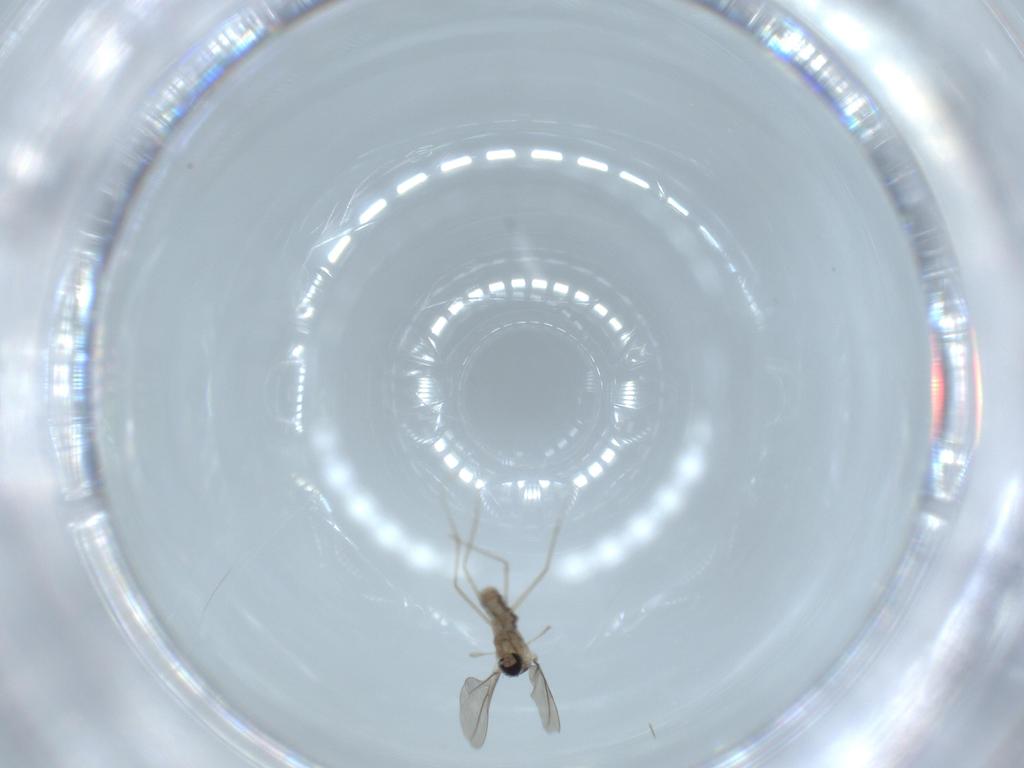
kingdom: Animalia
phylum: Arthropoda
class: Insecta
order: Diptera
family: Cecidomyiidae
